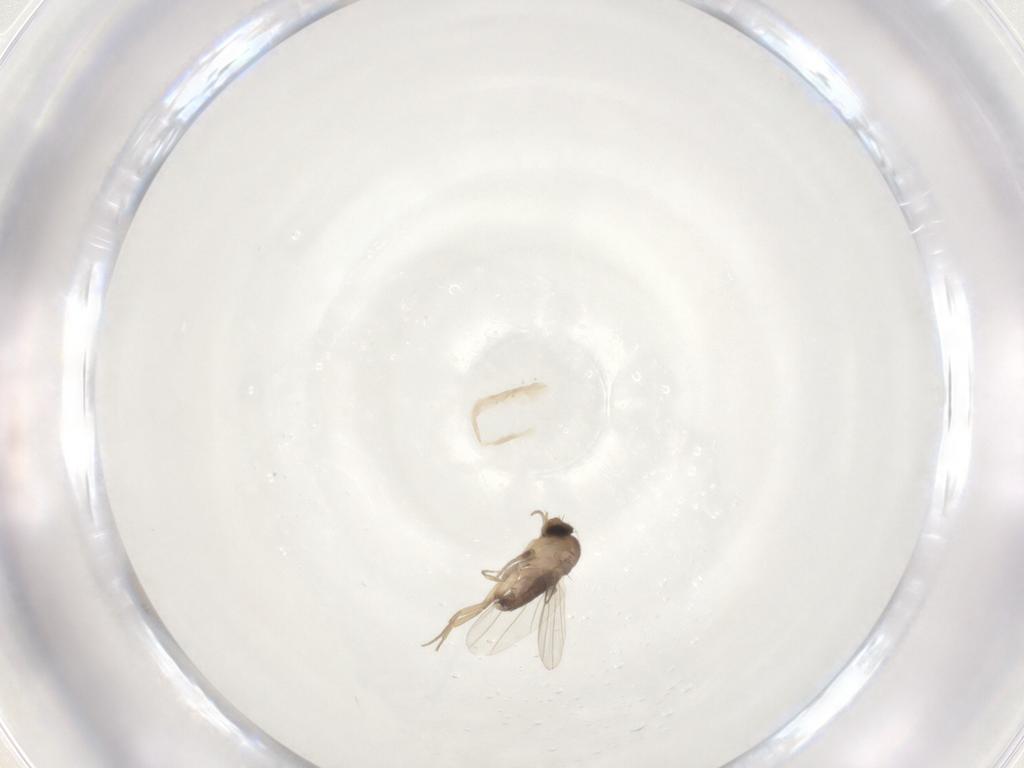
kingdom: Animalia
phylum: Arthropoda
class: Insecta
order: Diptera
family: Phoridae
